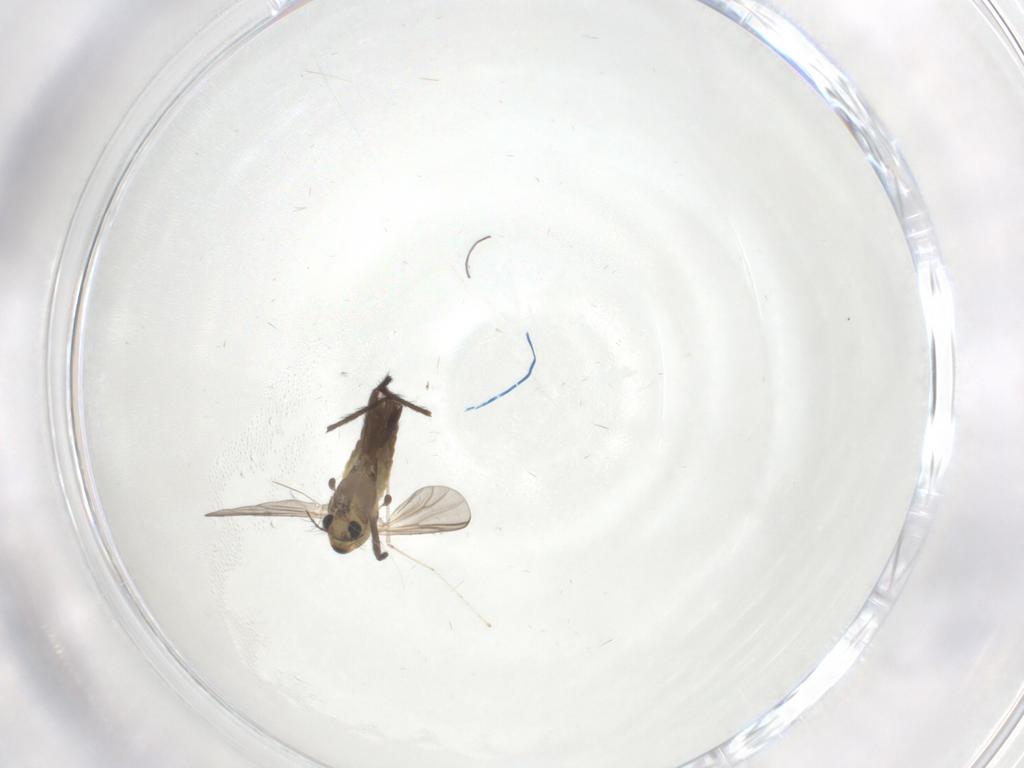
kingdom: Animalia
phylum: Arthropoda
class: Insecta
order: Diptera
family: Chironomidae
